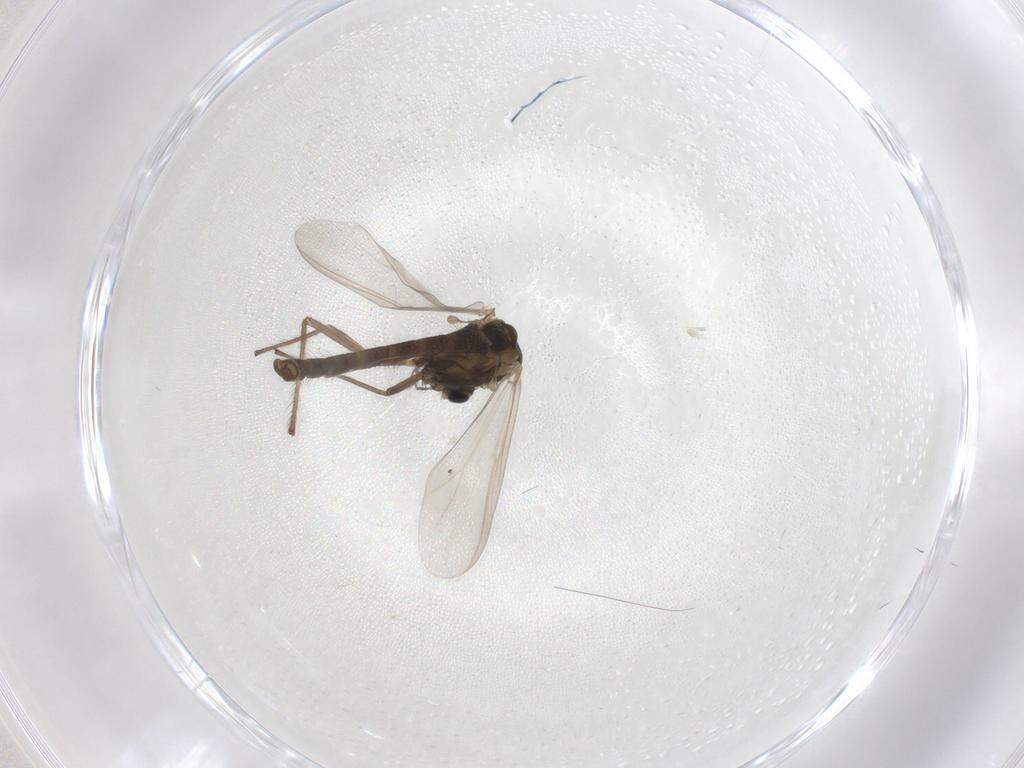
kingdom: Animalia
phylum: Arthropoda
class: Insecta
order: Diptera
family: Chironomidae
